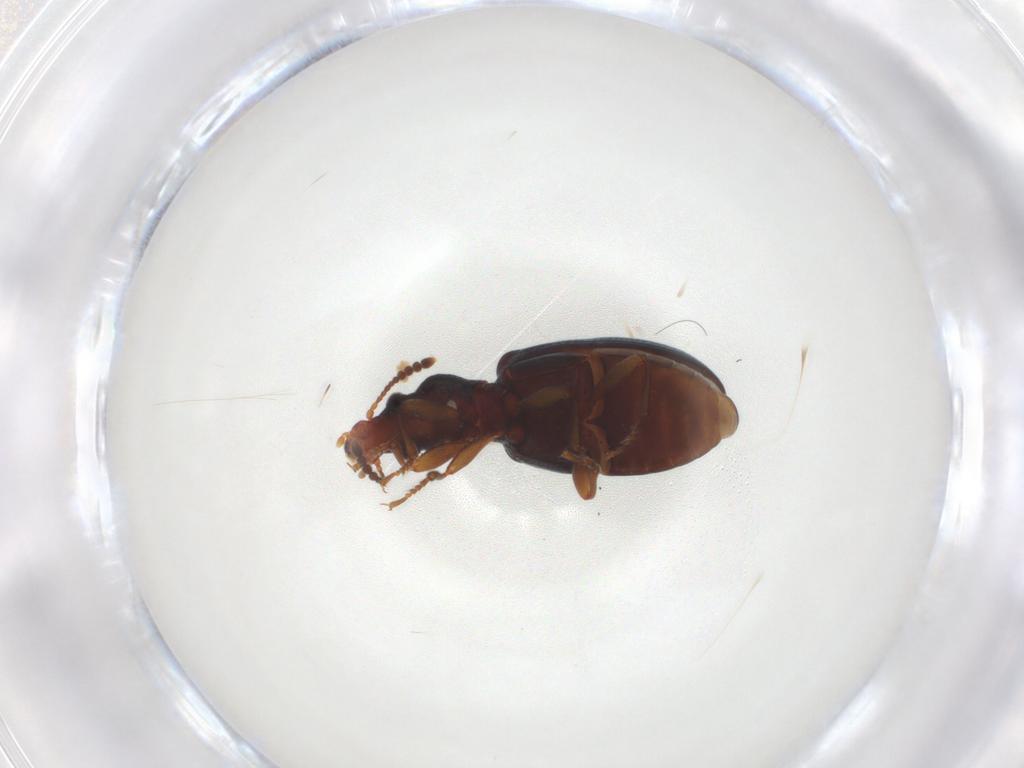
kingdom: Animalia
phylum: Arthropoda
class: Insecta
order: Coleoptera
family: Salpingidae
